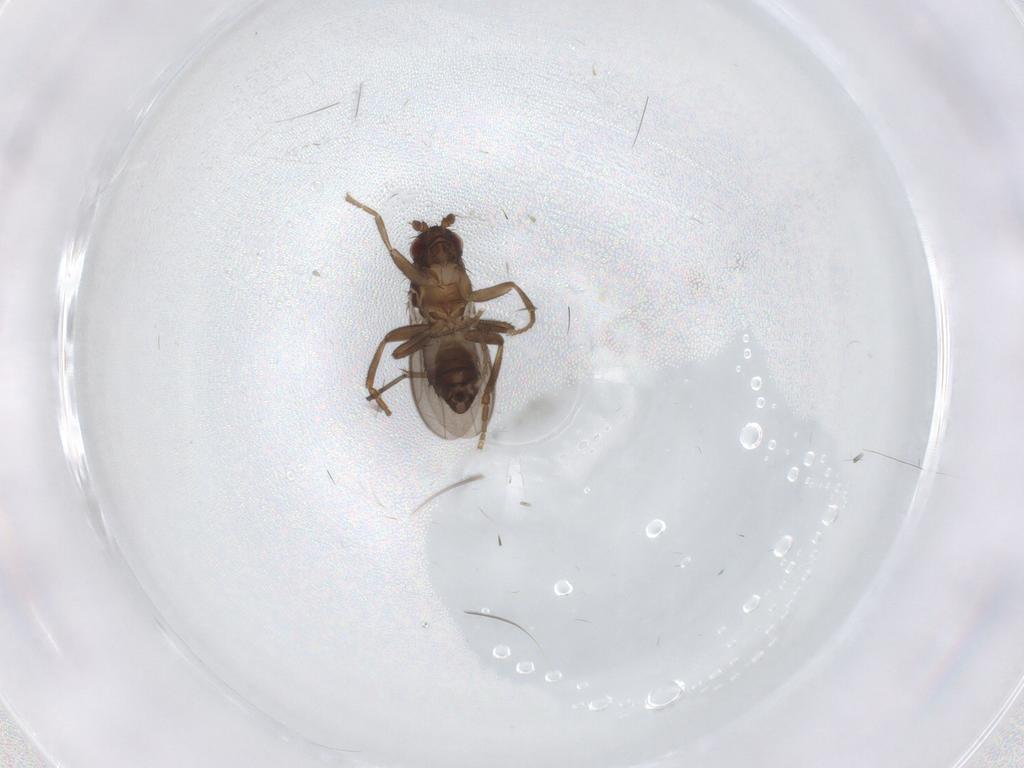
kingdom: Animalia
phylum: Arthropoda
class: Insecta
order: Diptera
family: Sphaeroceridae
